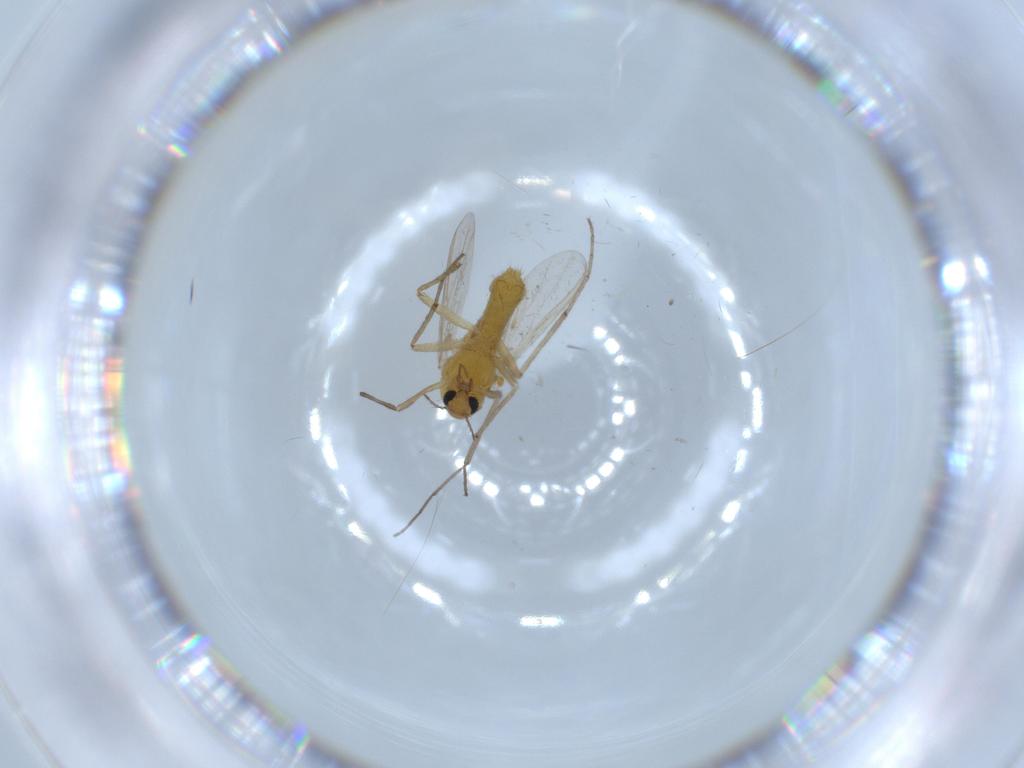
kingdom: Animalia
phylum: Arthropoda
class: Insecta
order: Diptera
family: Chironomidae
